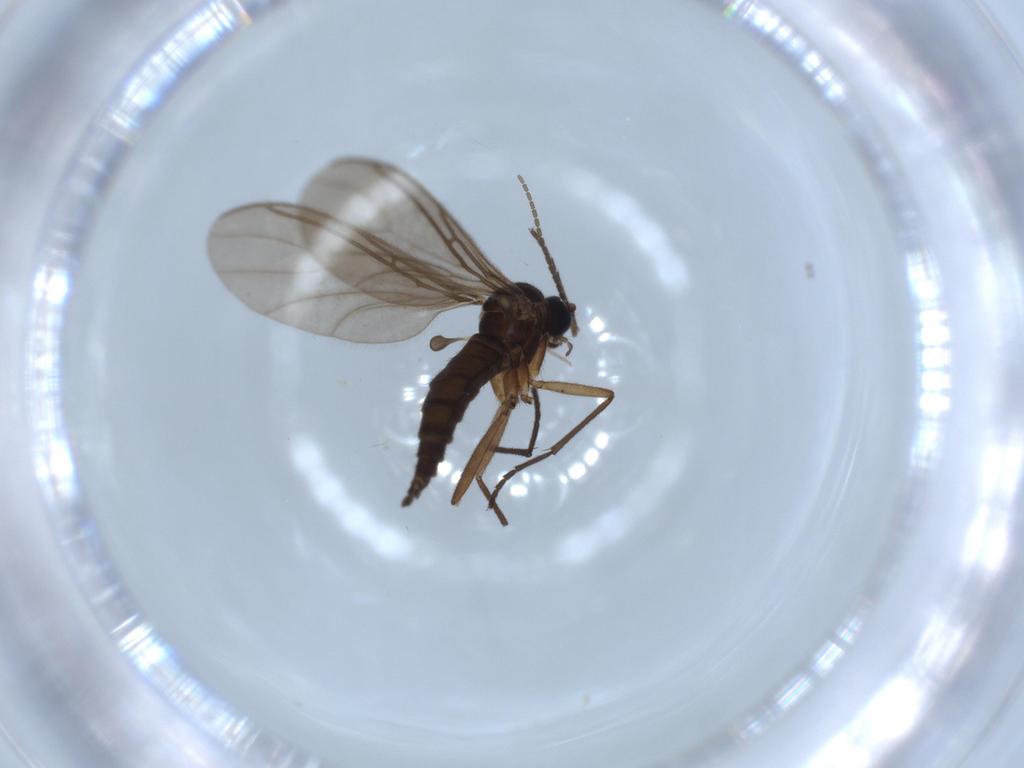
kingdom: Animalia
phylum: Arthropoda
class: Insecta
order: Diptera
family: Sciaridae
